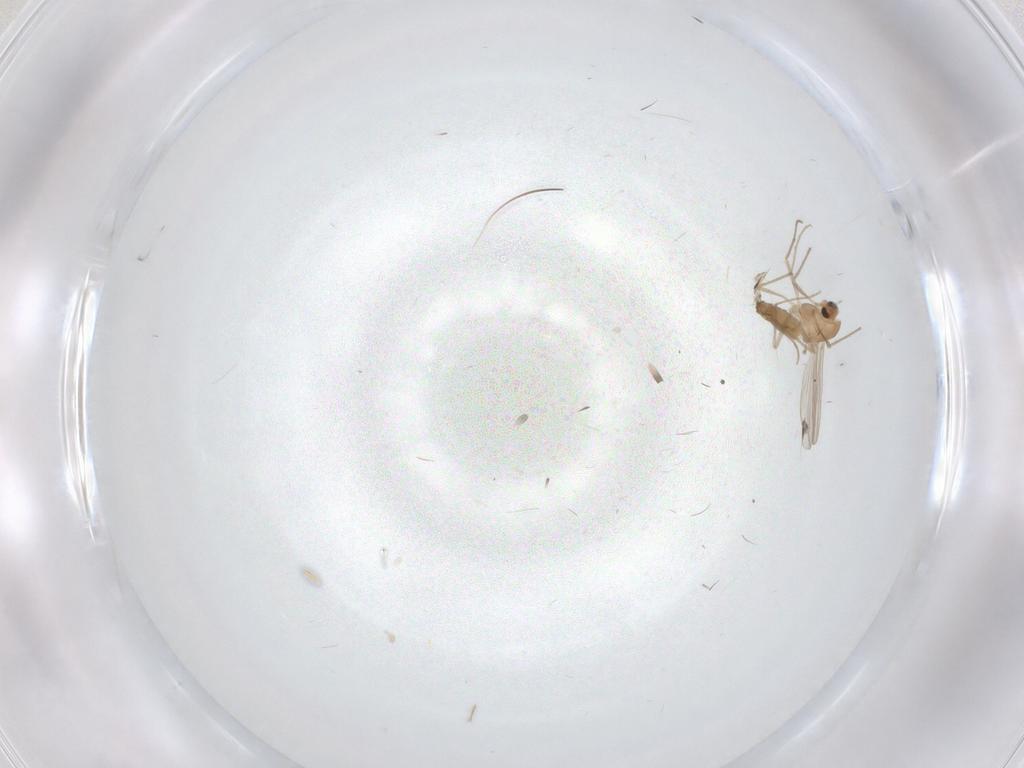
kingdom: Animalia
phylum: Arthropoda
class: Insecta
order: Diptera
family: Chironomidae
